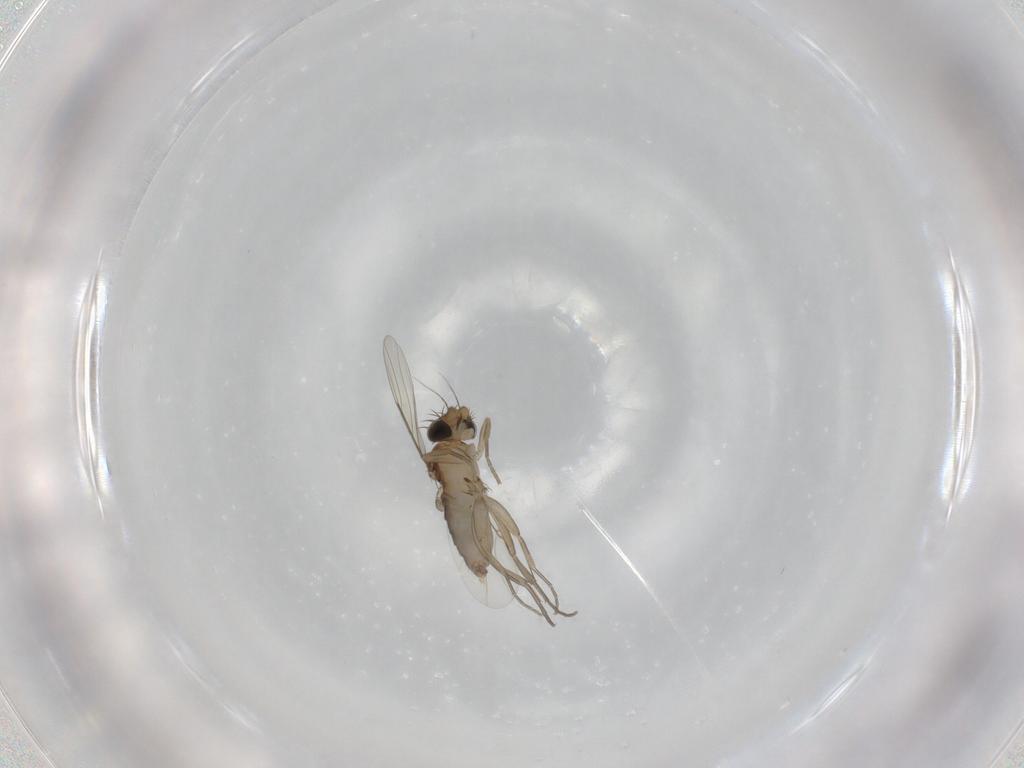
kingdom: Animalia
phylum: Arthropoda
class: Insecta
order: Diptera
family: Phoridae
